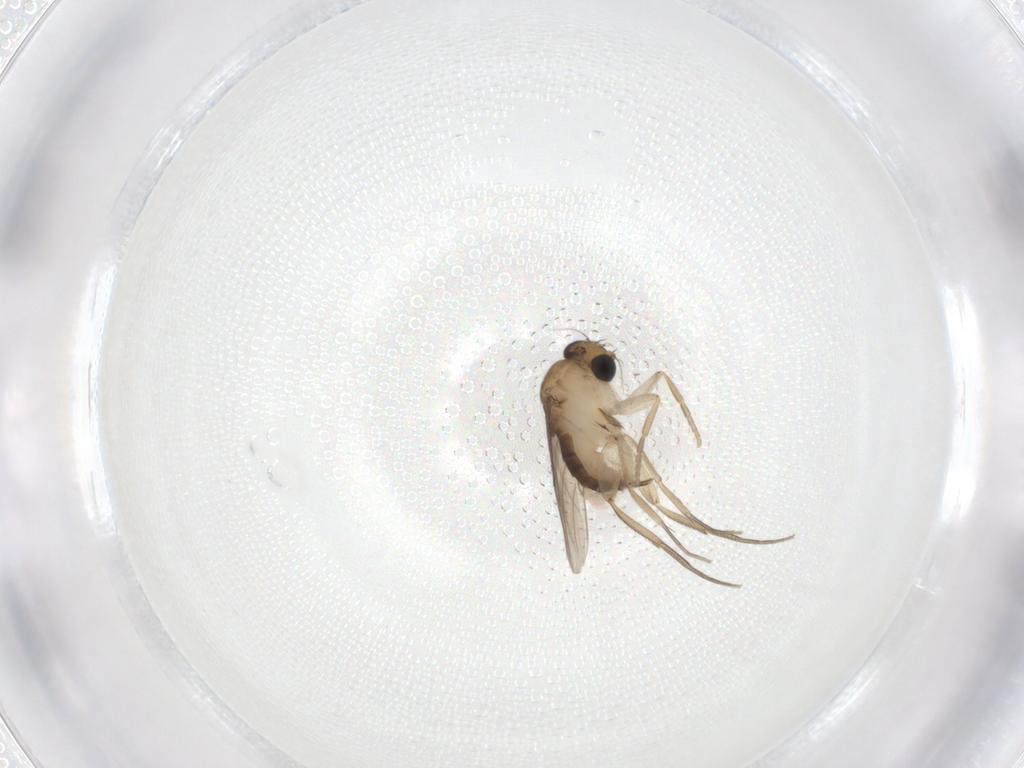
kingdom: Animalia
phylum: Arthropoda
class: Insecta
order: Diptera
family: Phoridae
